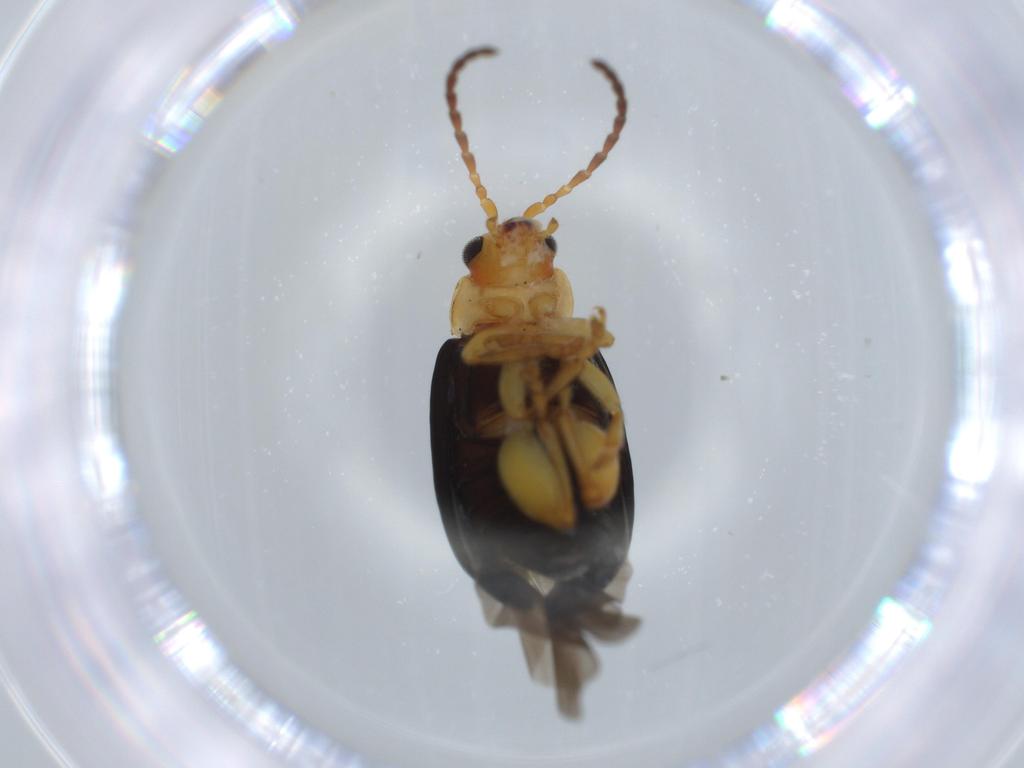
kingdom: Animalia
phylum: Arthropoda
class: Insecta
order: Coleoptera
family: Chrysomelidae
